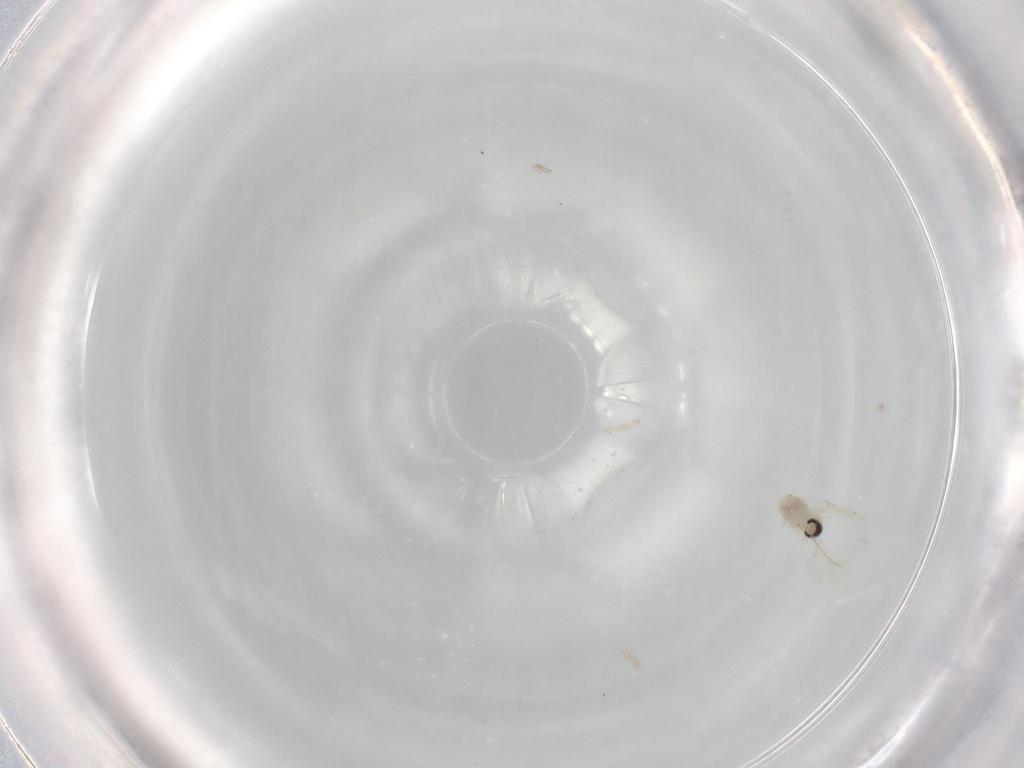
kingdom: Animalia
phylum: Arthropoda
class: Insecta
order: Diptera
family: Cecidomyiidae
